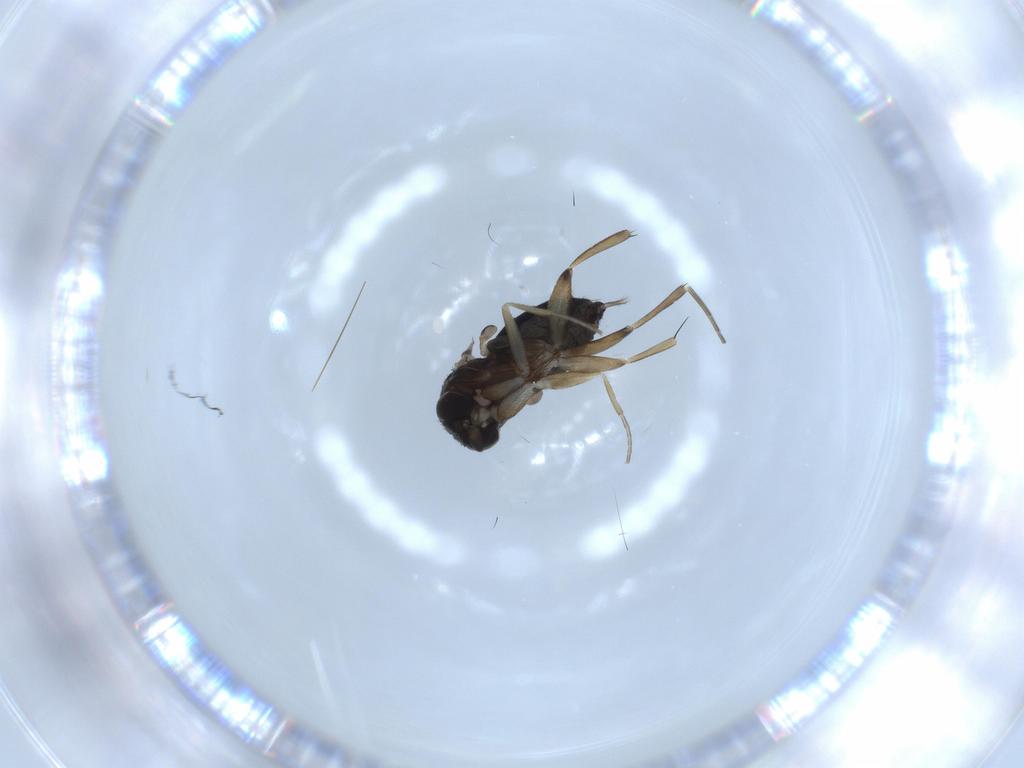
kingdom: Animalia
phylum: Arthropoda
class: Insecta
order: Diptera
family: Phoridae
